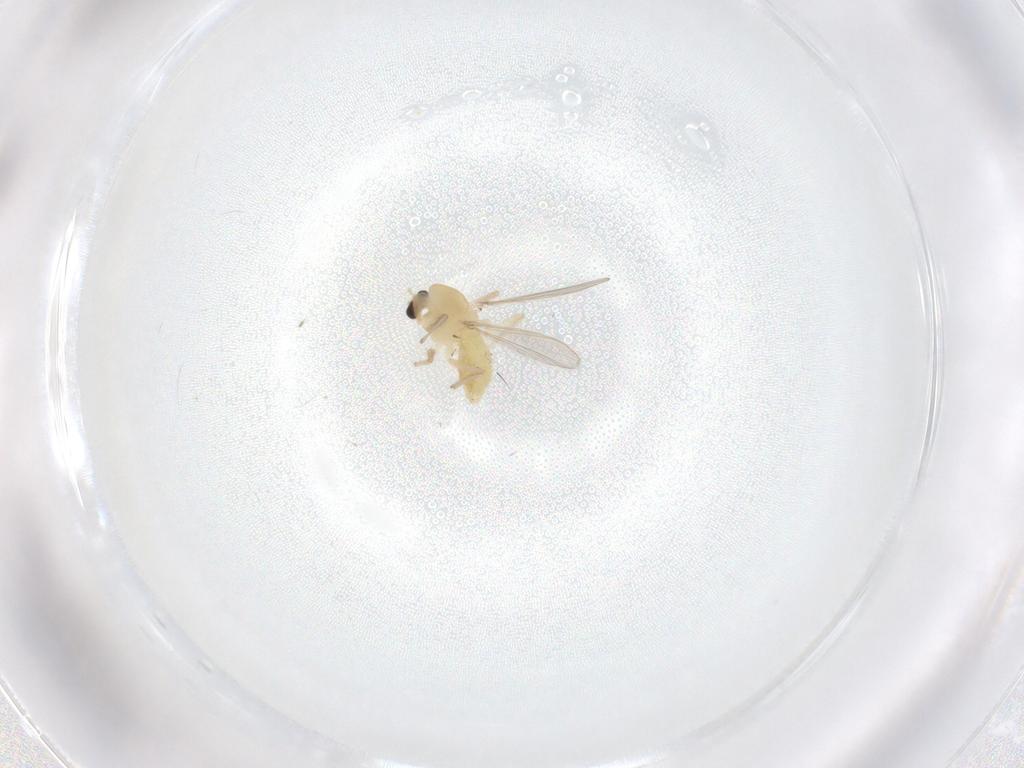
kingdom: Animalia
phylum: Arthropoda
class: Insecta
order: Diptera
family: Chironomidae
